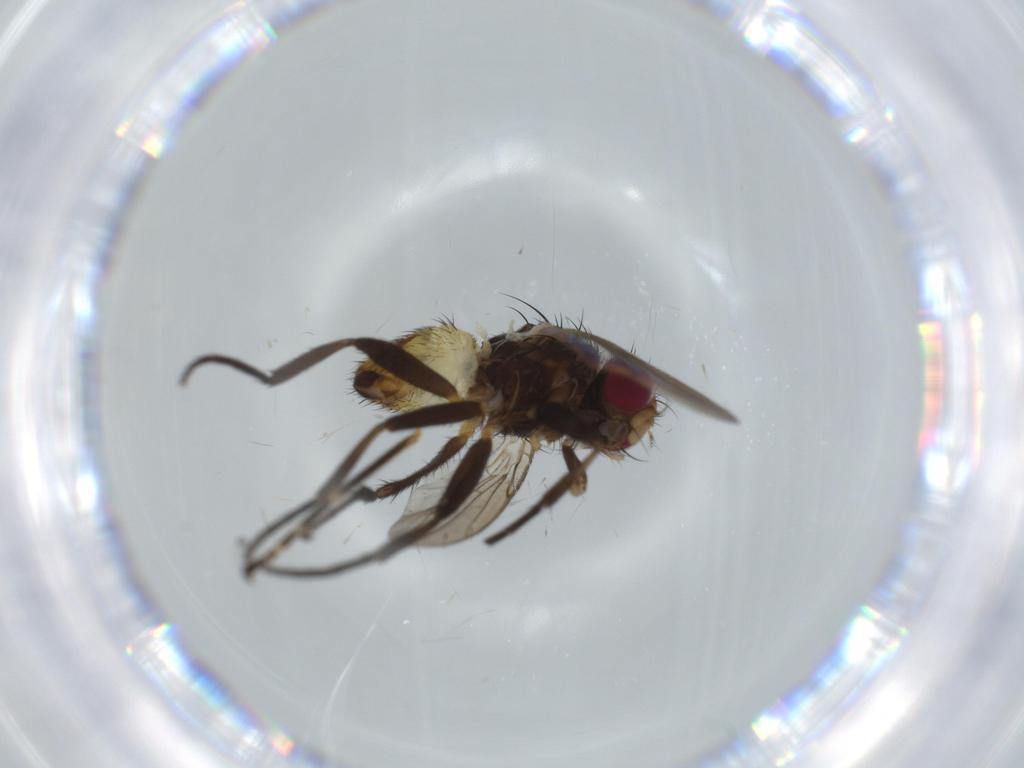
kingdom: Animalia
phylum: Arthropoda
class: Insecta
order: Diptera
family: Anthomyiidae
